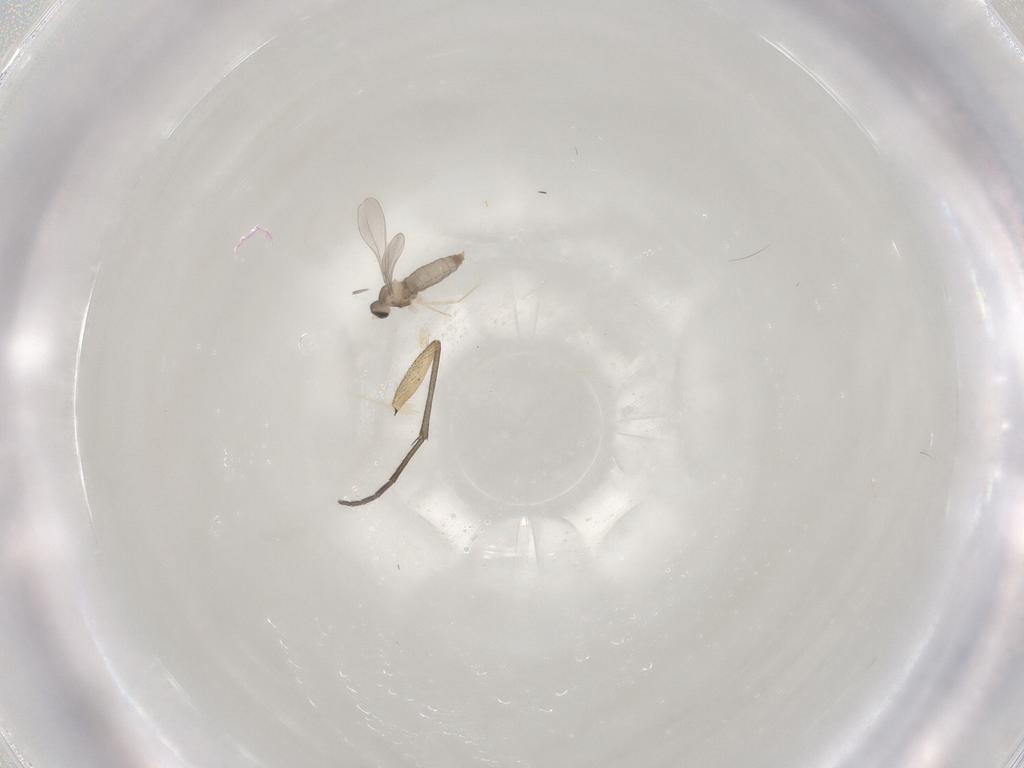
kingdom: Animalia
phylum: Arthropoda
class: Insecta
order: Diptera
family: Cecidomyiidae
